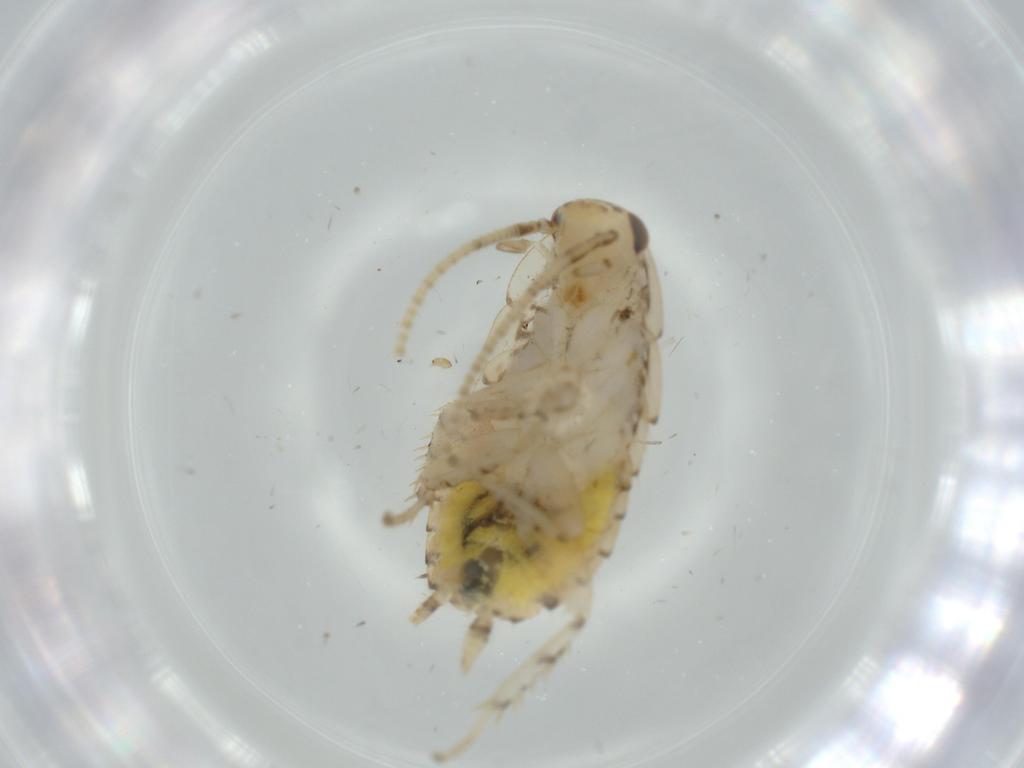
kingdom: Animalia
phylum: Arthropoda
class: Insecta
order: Blattodea
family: Ectobiidae
